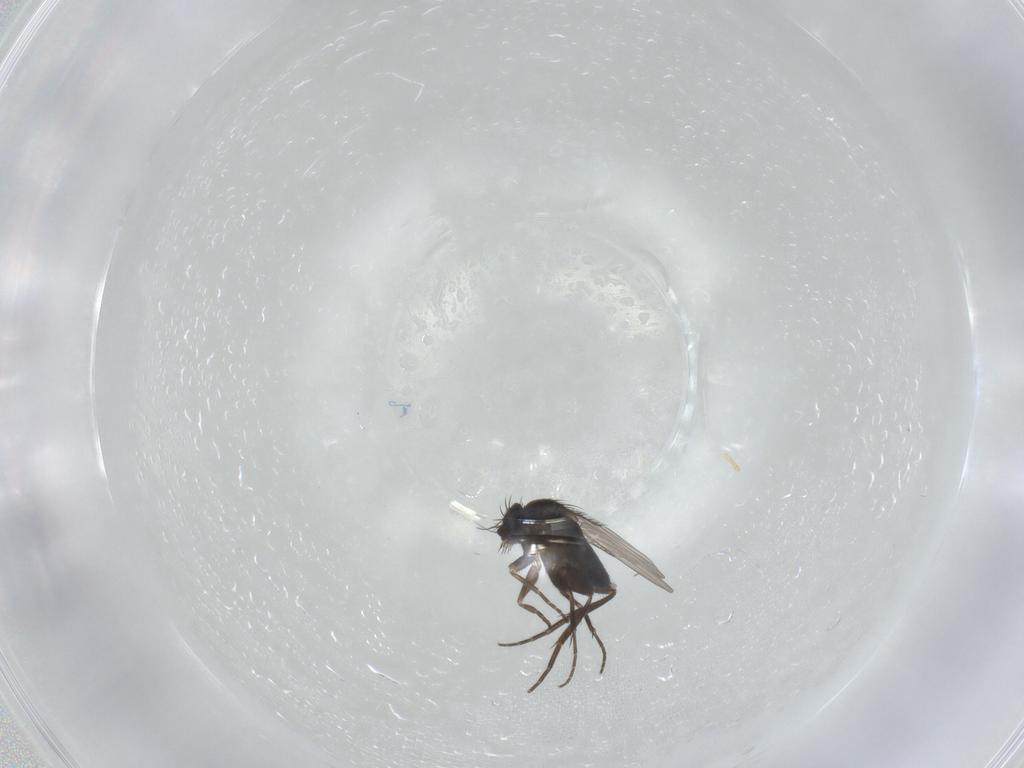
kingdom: Animalia
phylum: Arthropoda
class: Insecta
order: Diptera
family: Phoridae
